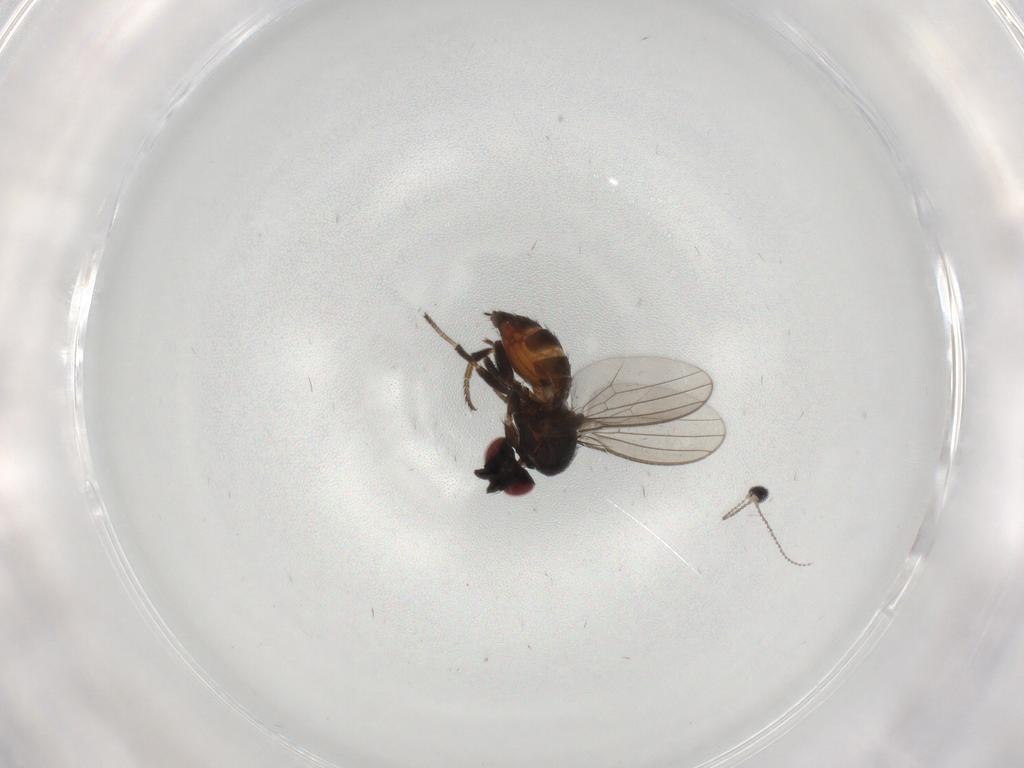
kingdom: Animalia
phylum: Arthropoda
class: Insecta
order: Diptera
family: Milichiidae
